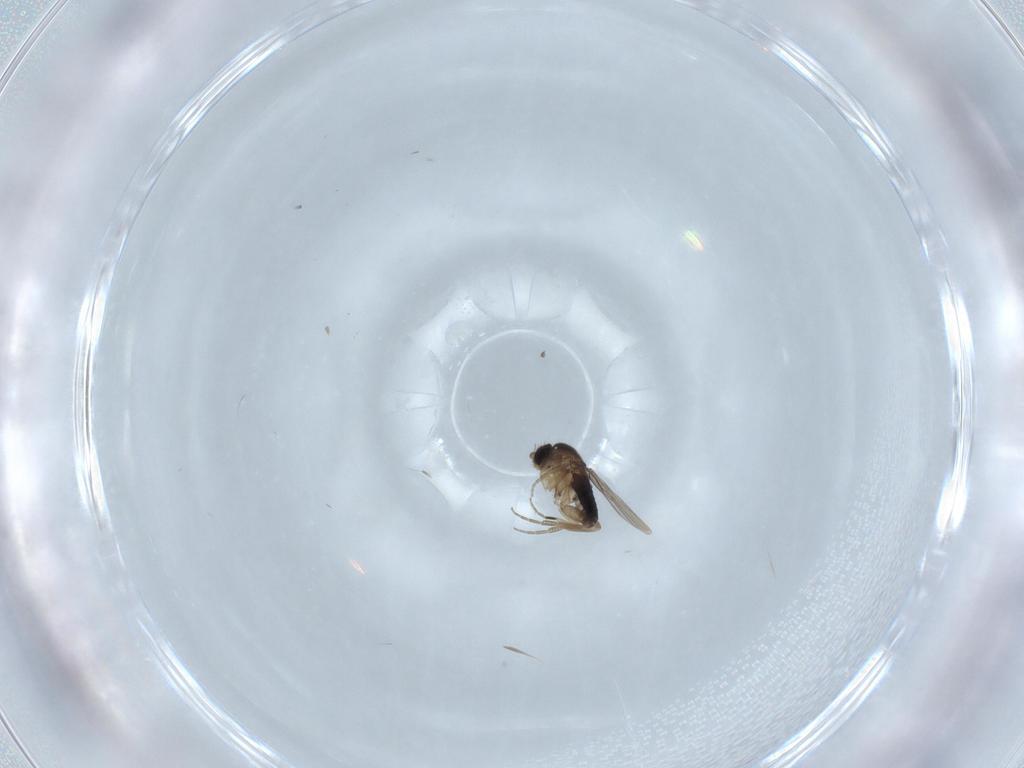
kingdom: Animalia
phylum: Arthropoda
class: Insecta
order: Diptera
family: Phoridae
